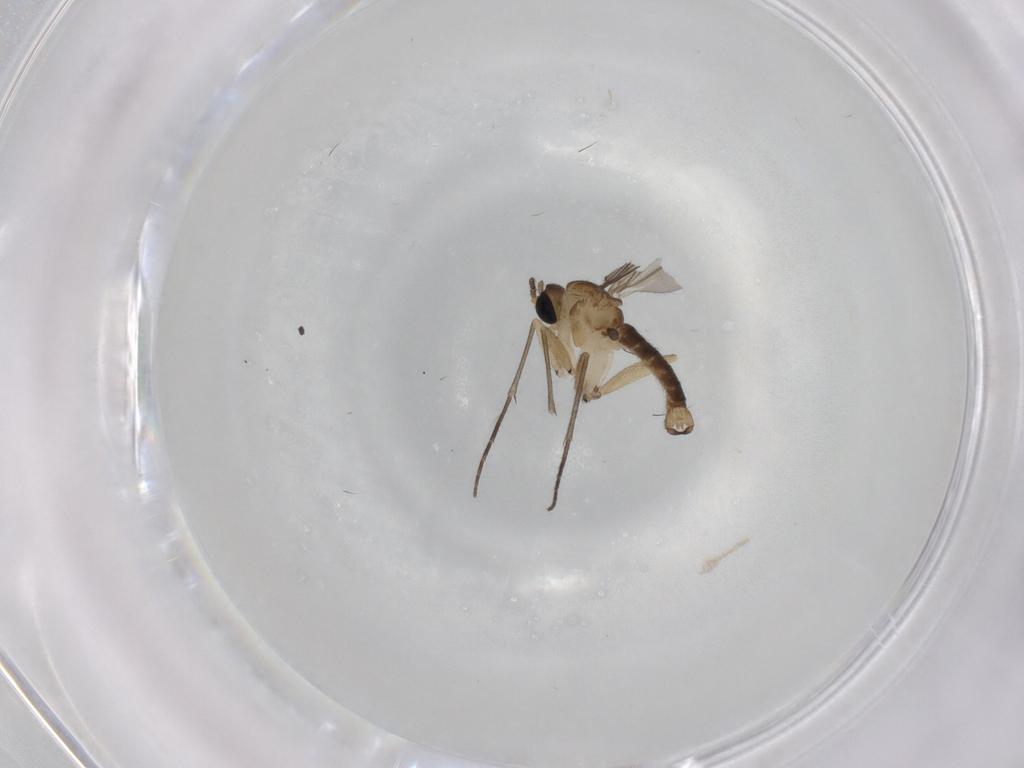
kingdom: Animalia
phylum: Arthropoda
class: Insecta
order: Diptera
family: Sciaridae
